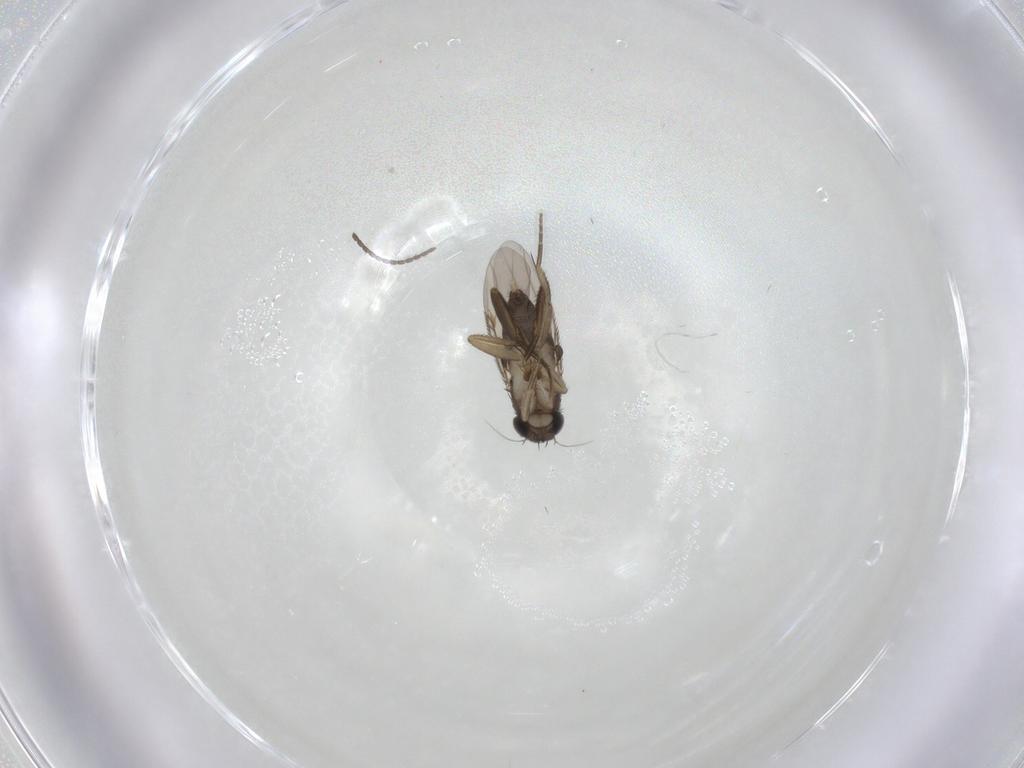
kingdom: Animalia
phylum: Arthropoda
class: Insecta
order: Diptera
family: Phoridae
